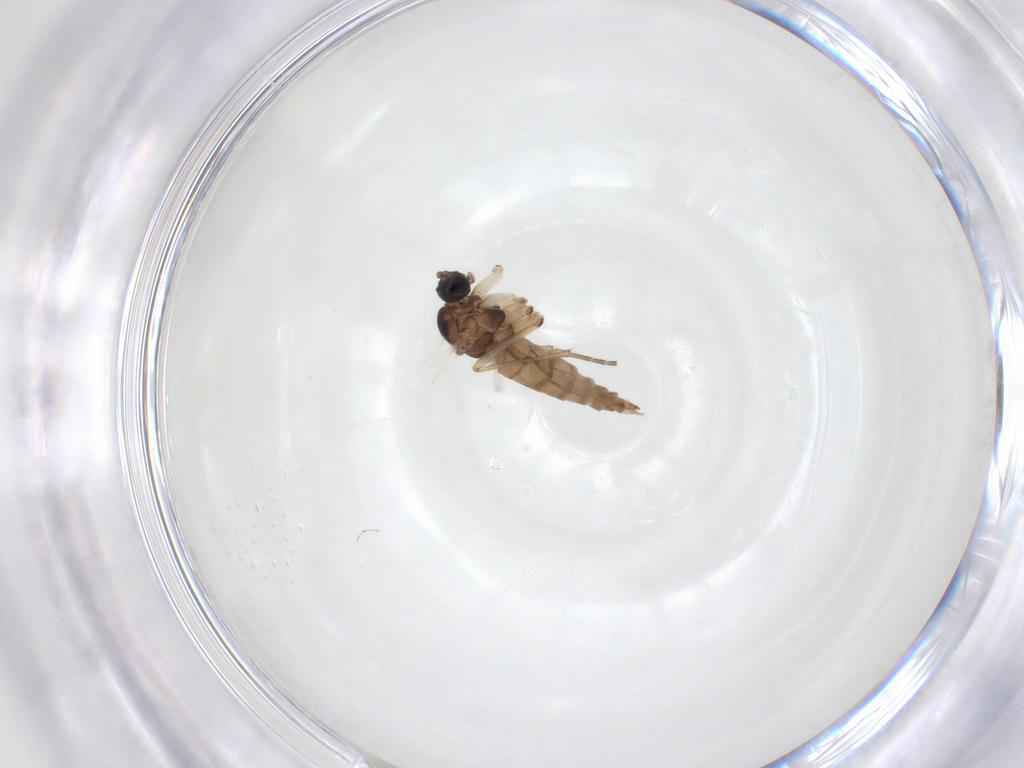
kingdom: Animalia
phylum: Arthropoda
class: Insecta
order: Diptera
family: Sciaridae
